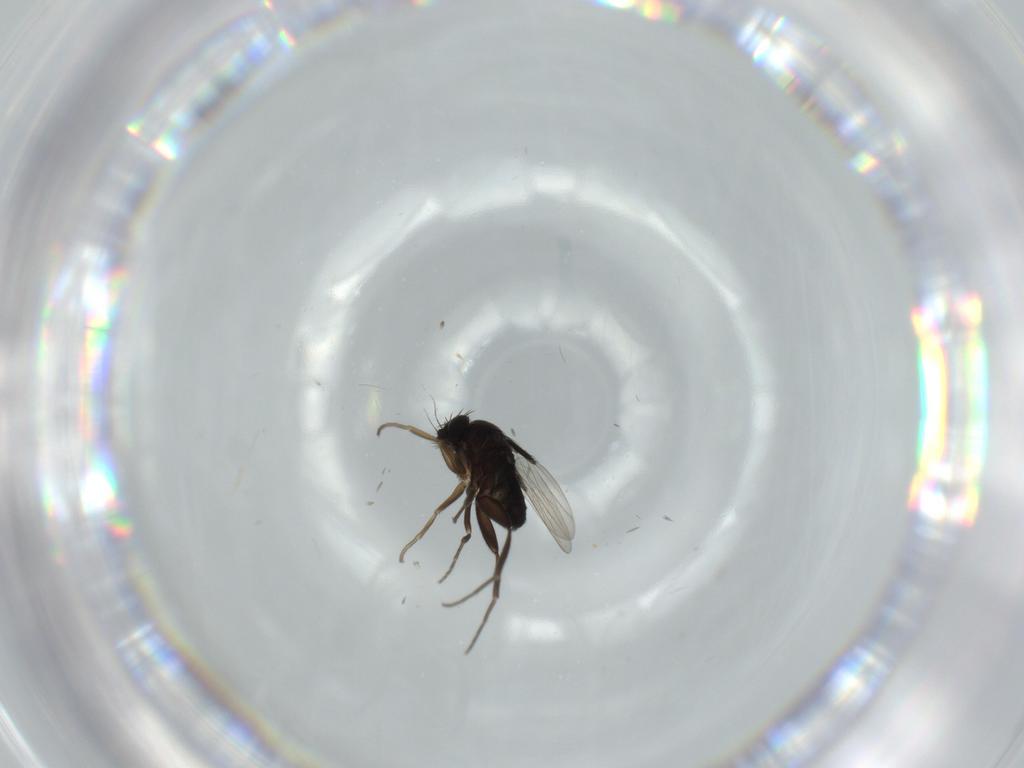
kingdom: Animalia
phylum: Arthropoda
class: Insecta
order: Diptera
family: Phoridae
